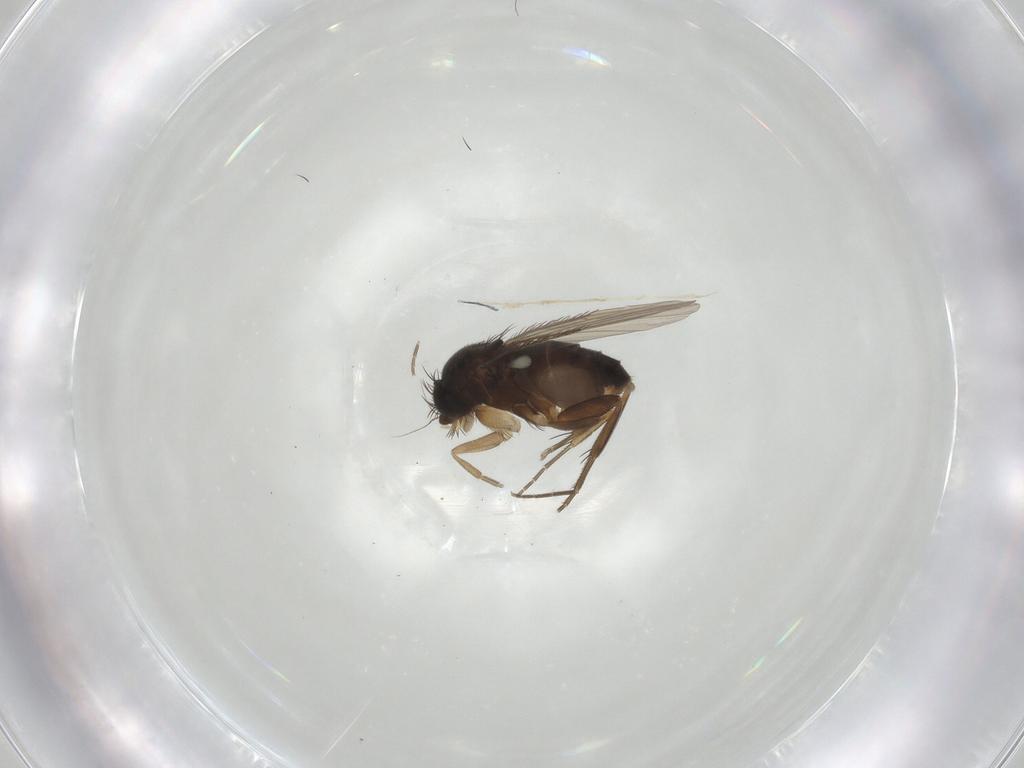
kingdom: Animalia
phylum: Arthropoda
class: Insecta
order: Diptera
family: Phoridae
